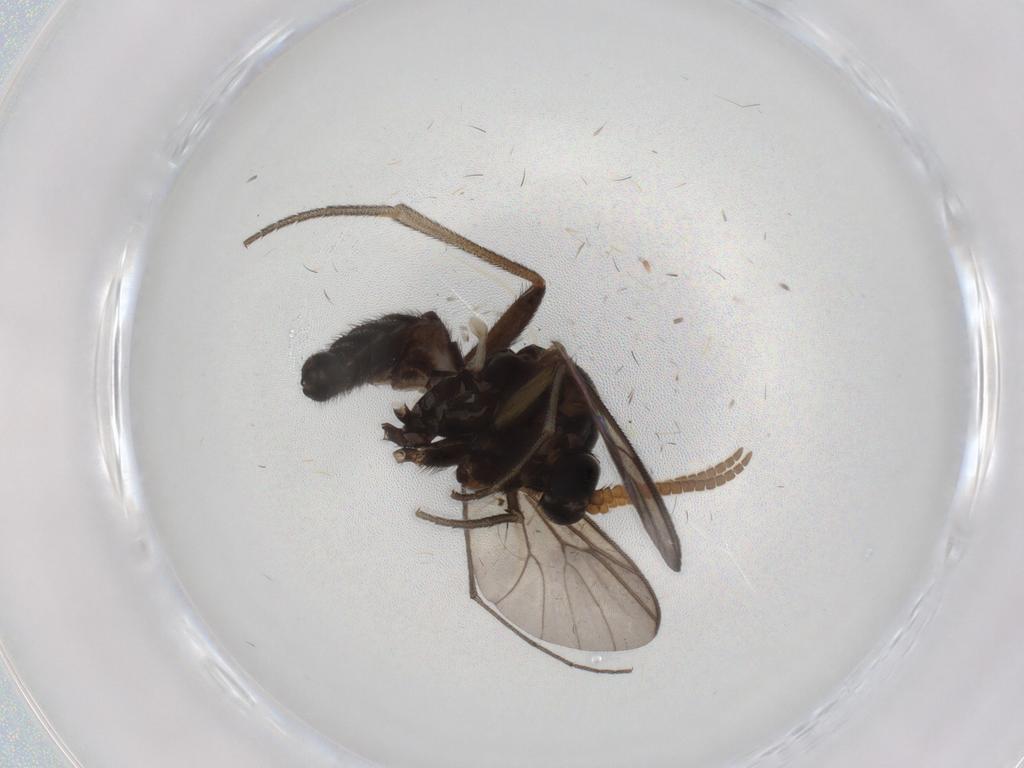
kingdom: Animalia
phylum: Arthropoda
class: Insecta
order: Diptera
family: Mycetophilidae
